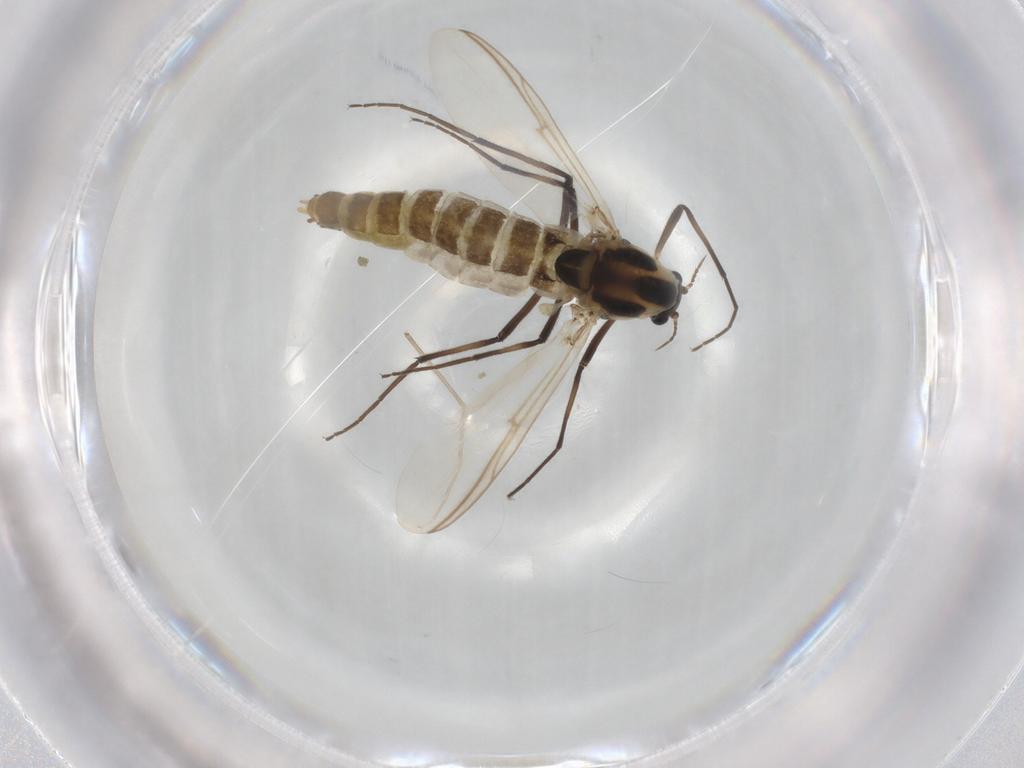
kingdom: Animalia
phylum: Arthropoda
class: Insecta
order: Diptera
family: Chironomidae
